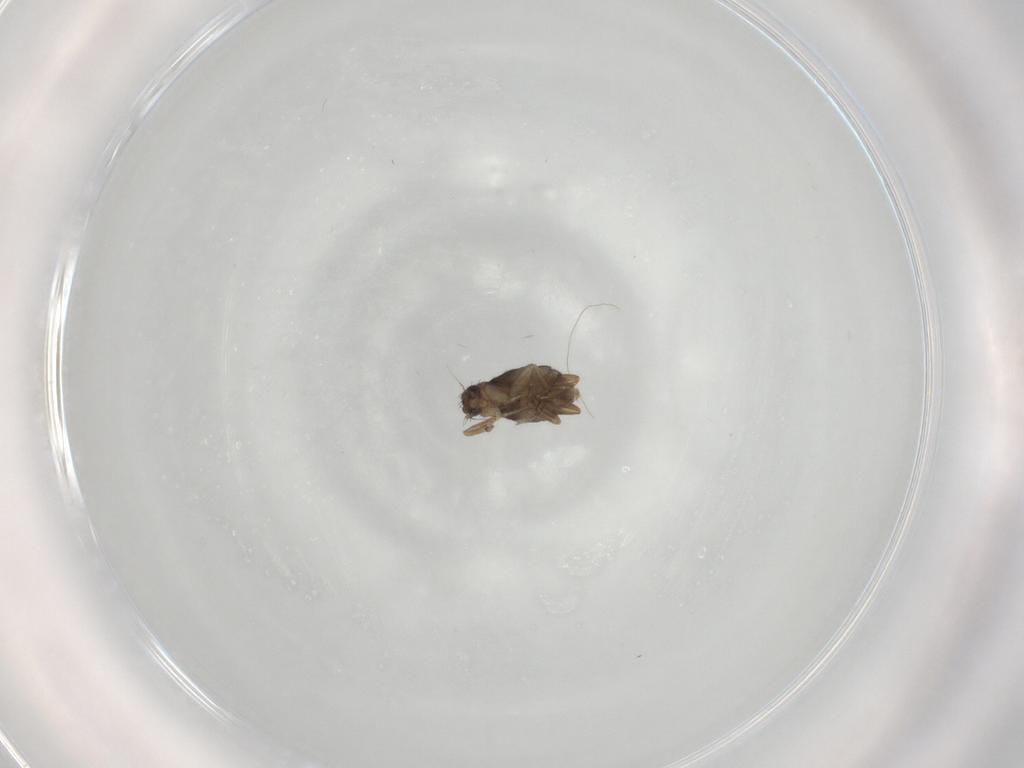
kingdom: Animalia
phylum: Arthropoda
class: Insecta
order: Diptera
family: Phoridae
